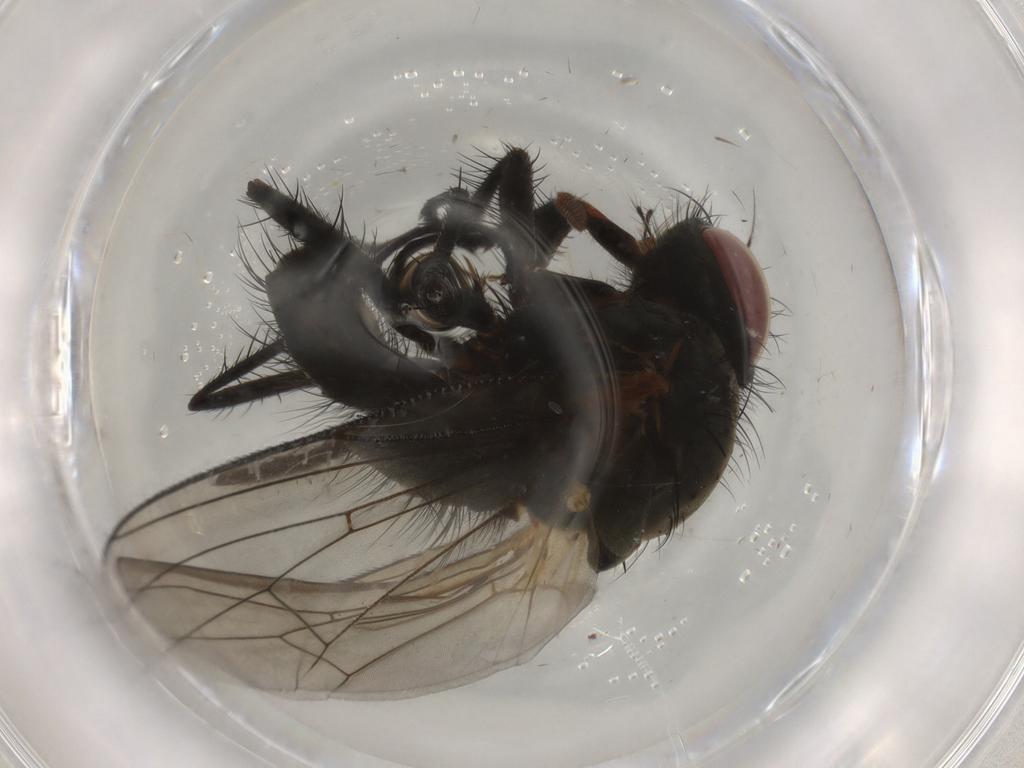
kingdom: Animalia
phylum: Arthropoda
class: Insecta
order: Diptera
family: Anthomyiidae
